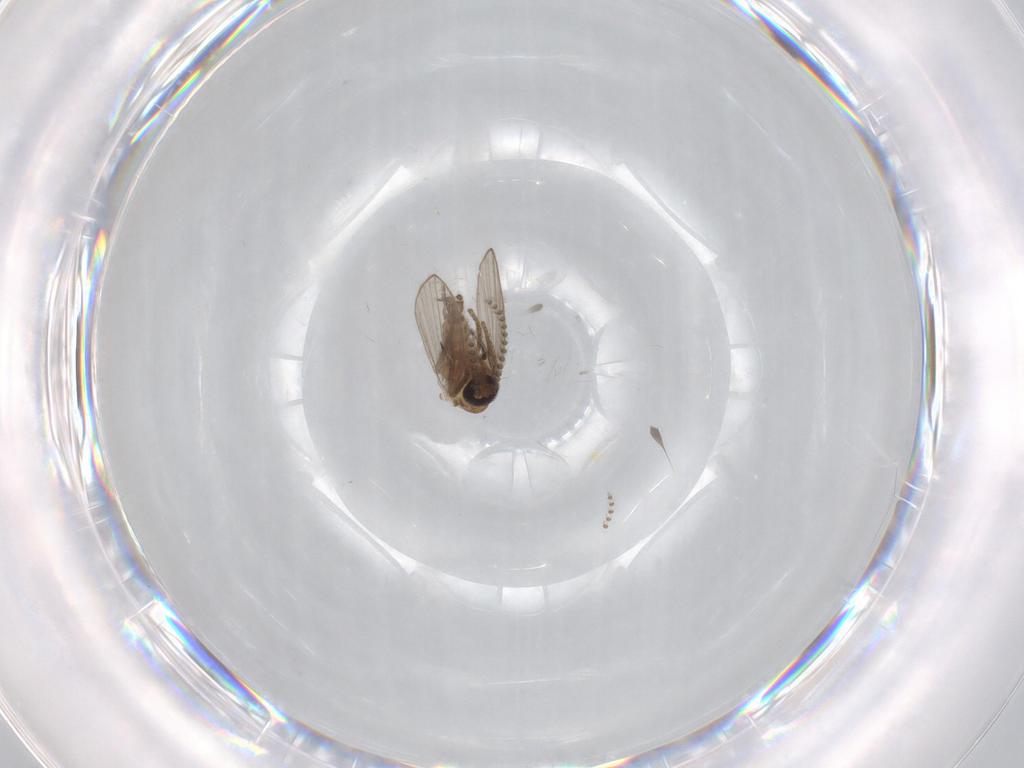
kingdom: Animalia
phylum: Arthropoda
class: Insecta
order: Diptera
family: Sciaridae
